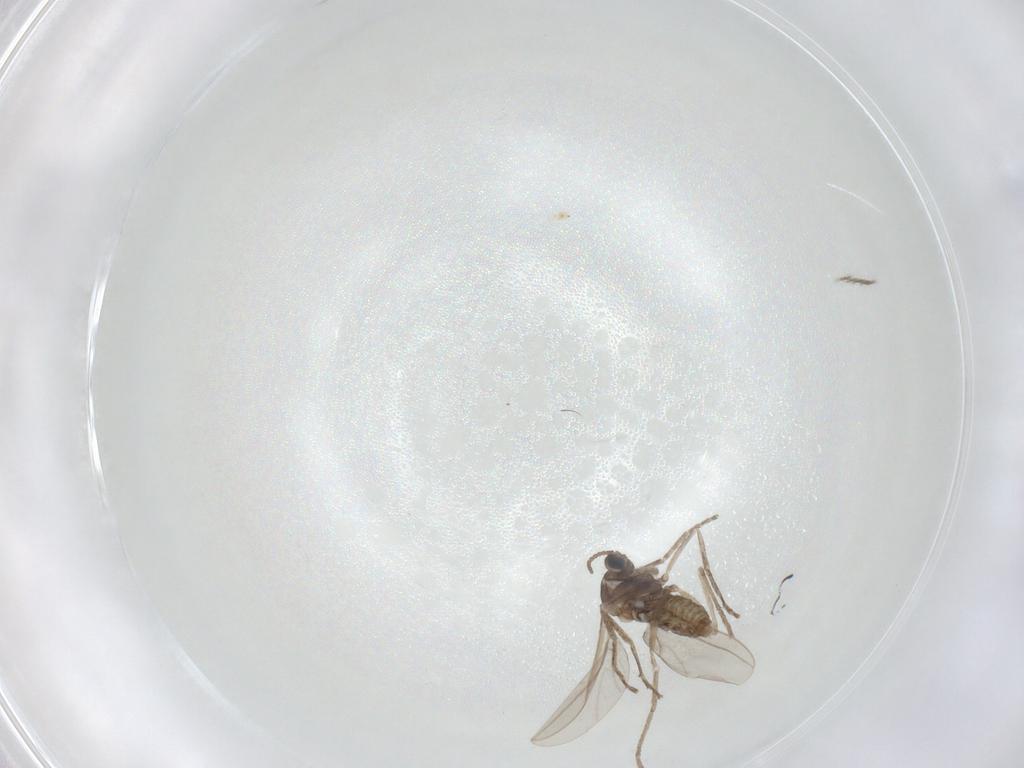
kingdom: Animalia
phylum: Arthropoda
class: Insecta
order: Diptera
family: Cecidomyiidae
